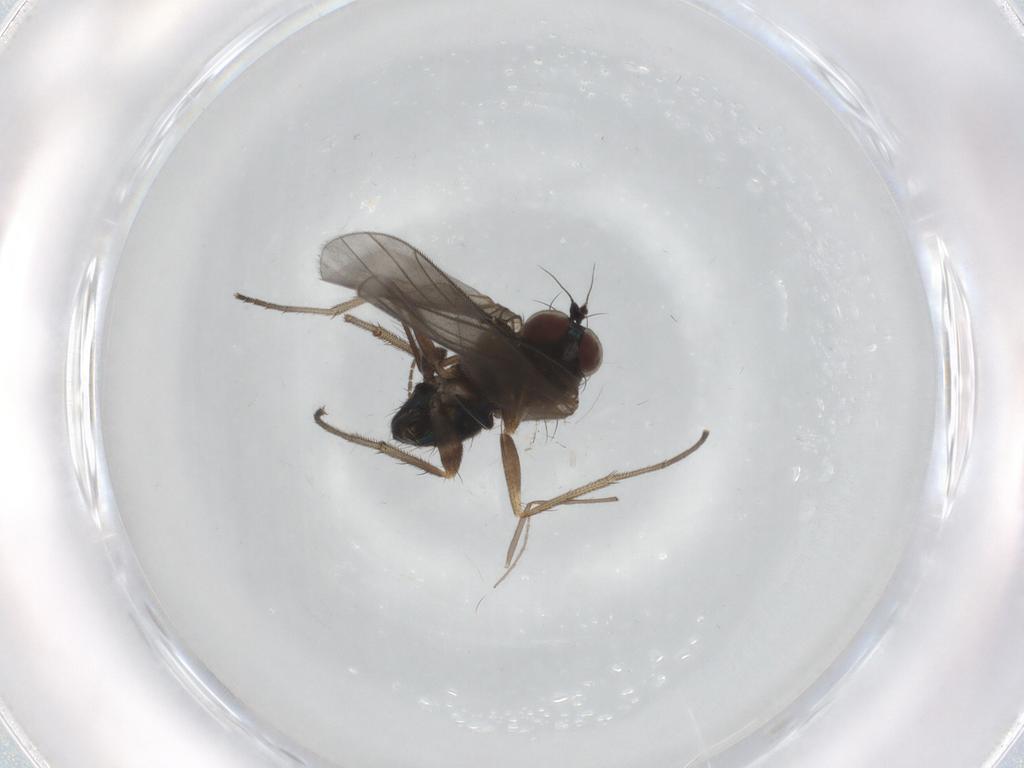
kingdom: Animalia
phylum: Arthropoda
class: Insecta
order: Diptera
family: Dolichopodidae
